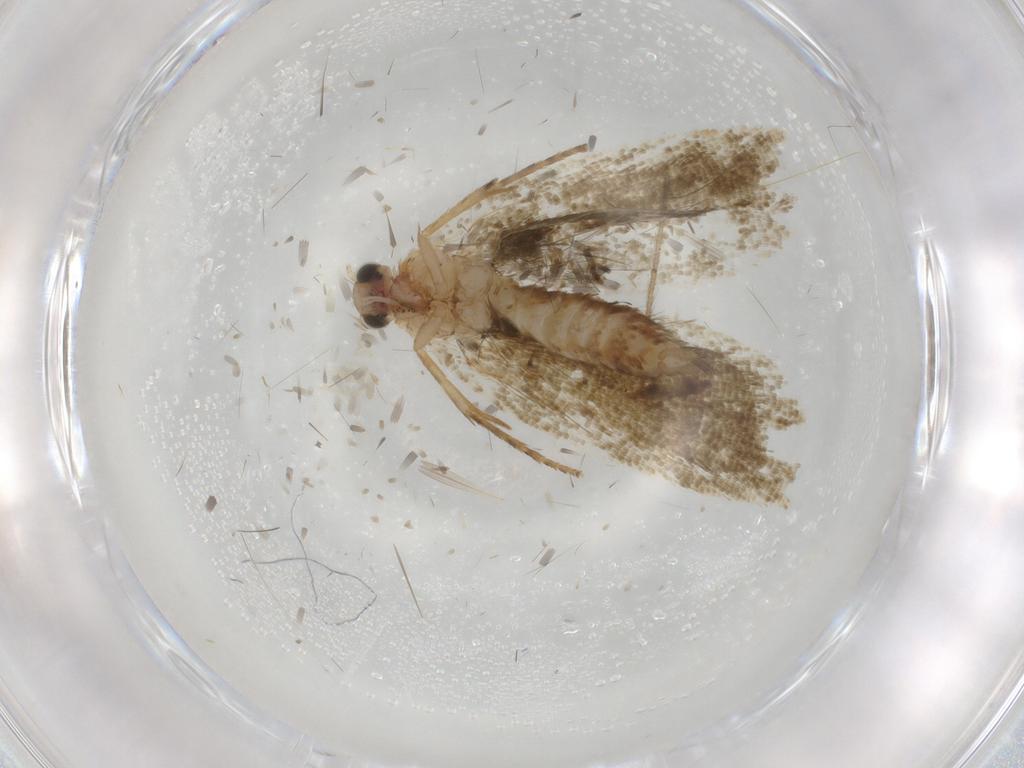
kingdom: Animalia
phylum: Arthropoda
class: Insecta
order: Lepidoptera
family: Tortricidae
